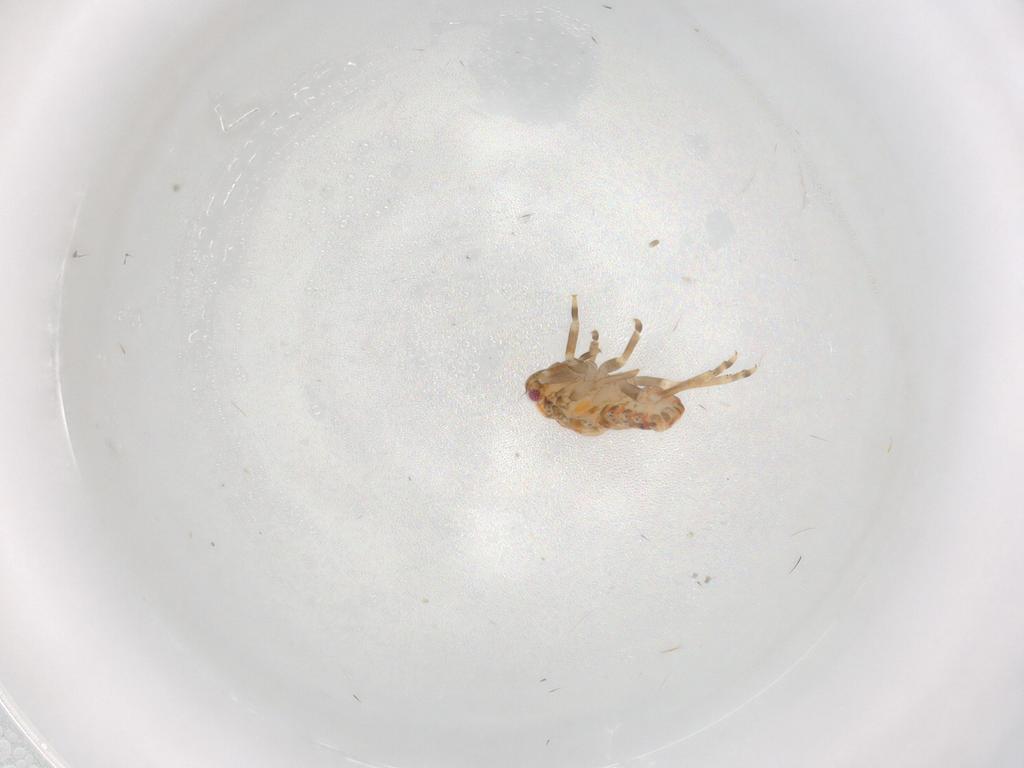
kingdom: Animalia
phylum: Arthropoda
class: Insecta
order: Hemiptera
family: Flatidae
